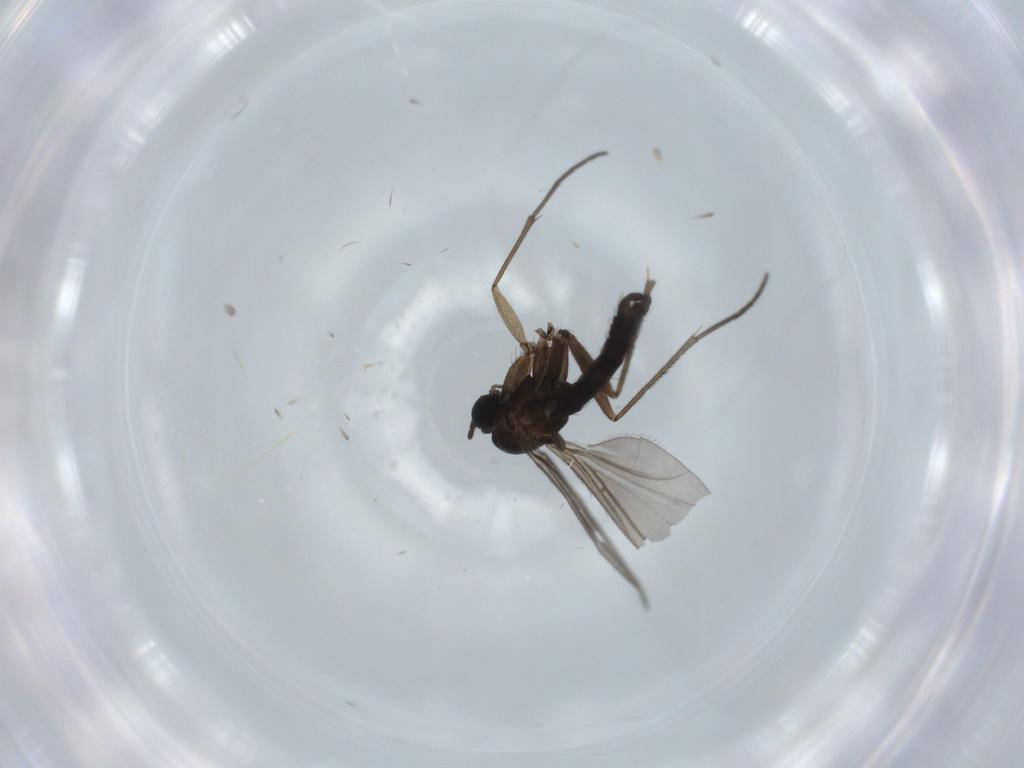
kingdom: Animalia
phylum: Arthropoda
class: Insecta
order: Diptera
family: Sciaridae
